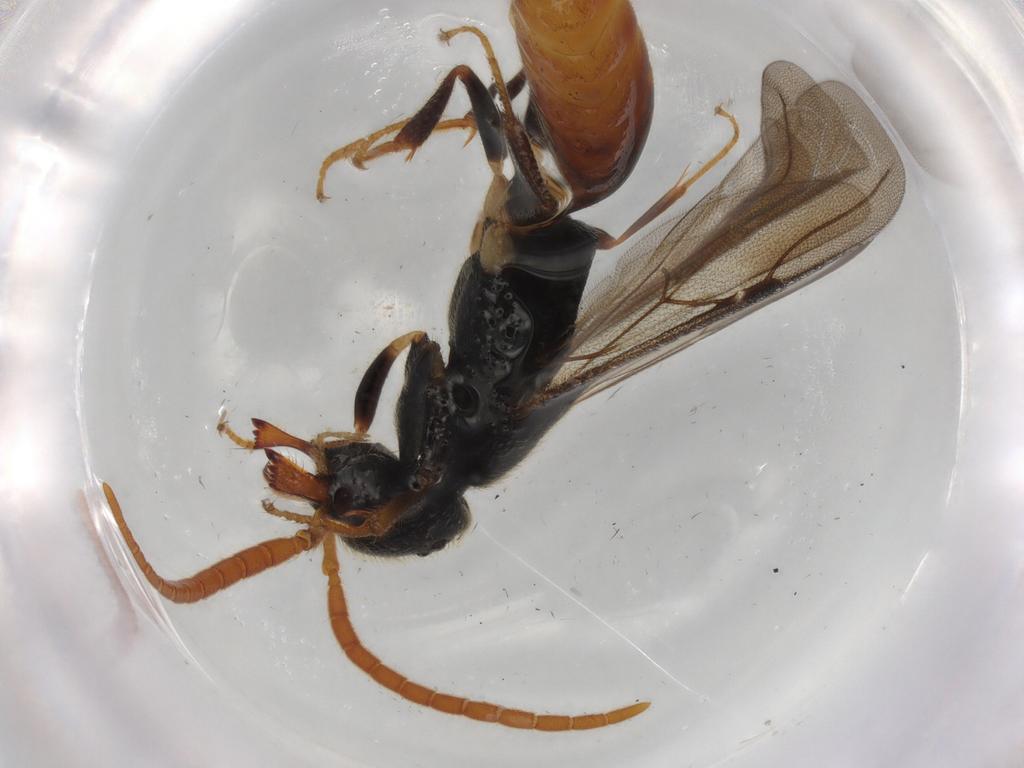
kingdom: Animalia
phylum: Arthropoda
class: Insecta
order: Hymenoptera
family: Bethylidae
